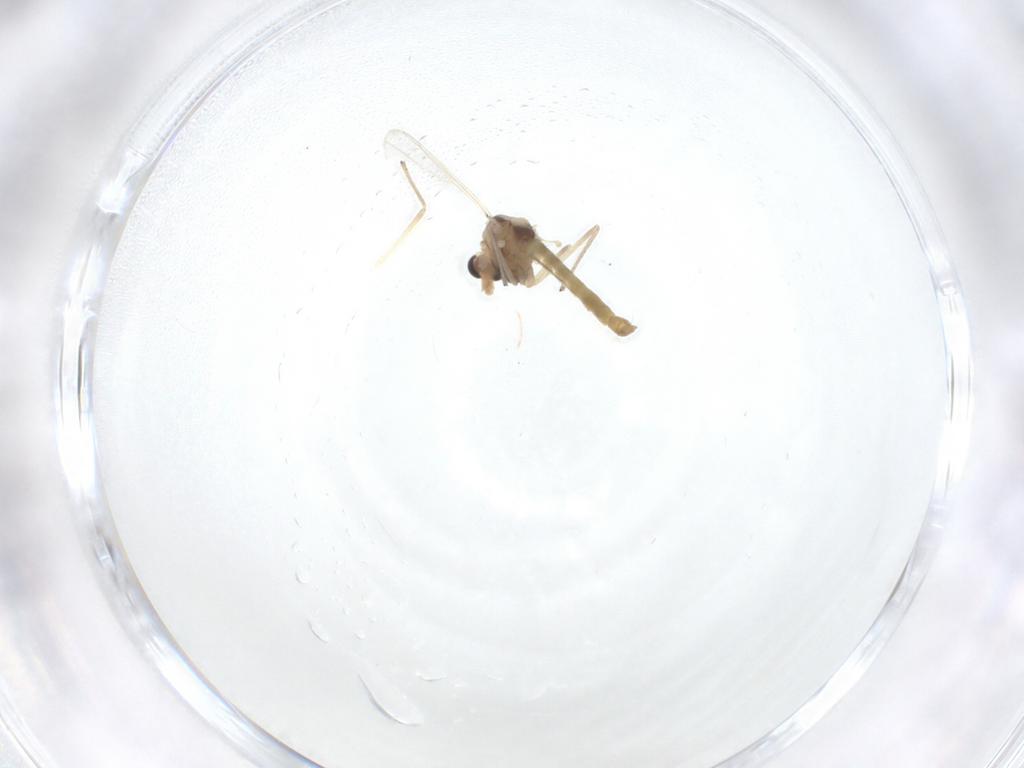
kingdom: Animalia
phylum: Arthropoda
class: Insecta
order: Diptera
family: Chironomidae
